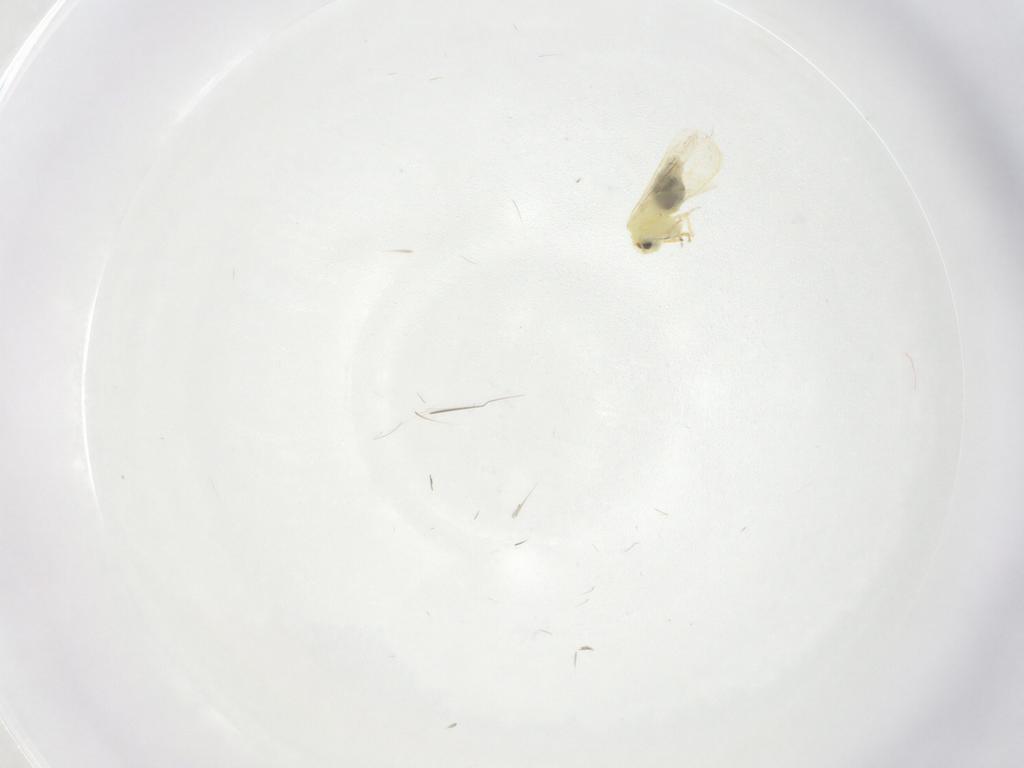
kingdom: Animalia
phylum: Arthropoda
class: Insecta
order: Hemiptera
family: Aleyrodidae
